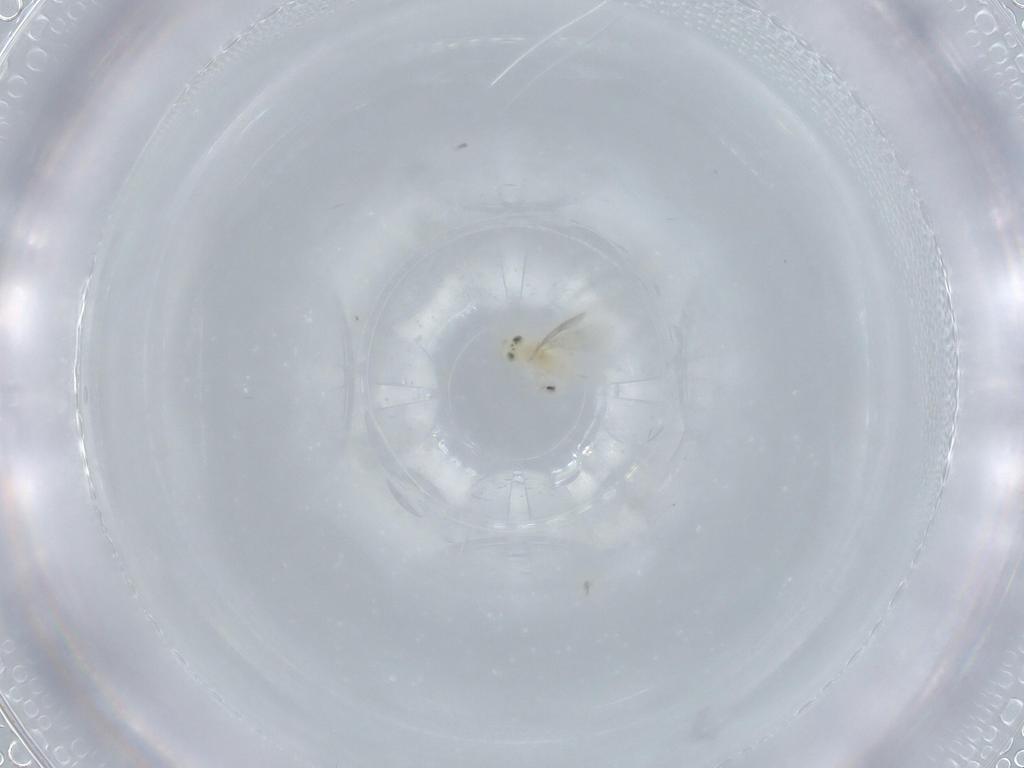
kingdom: Animalia
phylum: Arthropoda
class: Insecta
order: Hymenoptera
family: Aphelinidae
